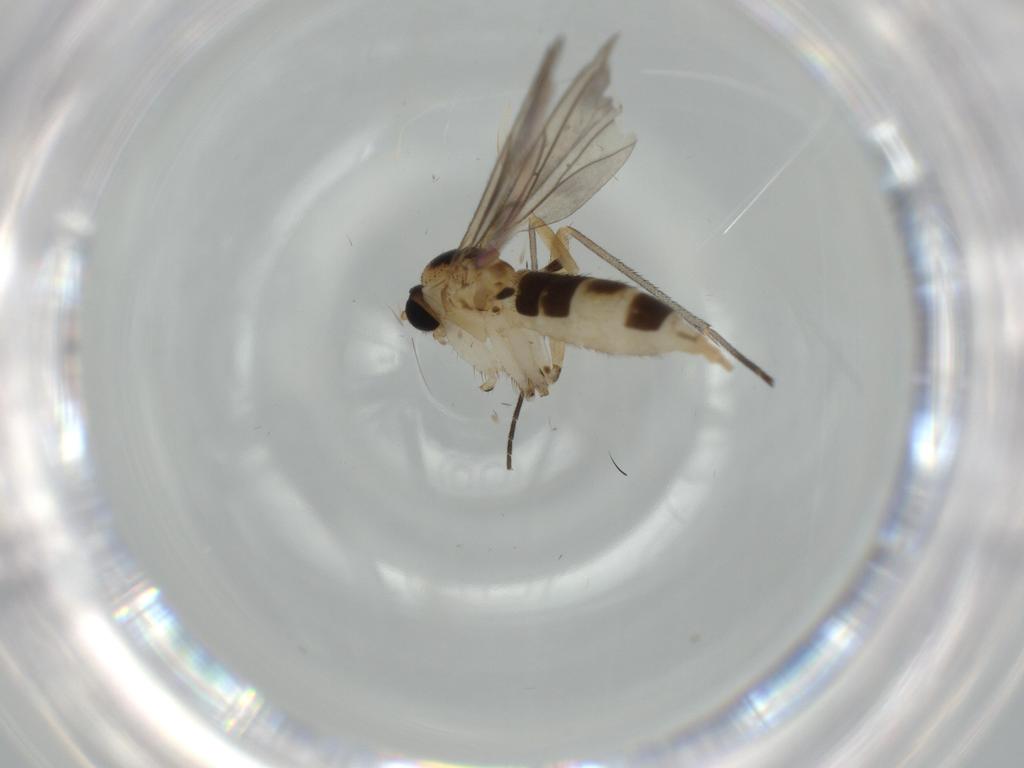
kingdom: Animalia
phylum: Arthropoda
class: Insecta
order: Diptera
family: Sciaridae
